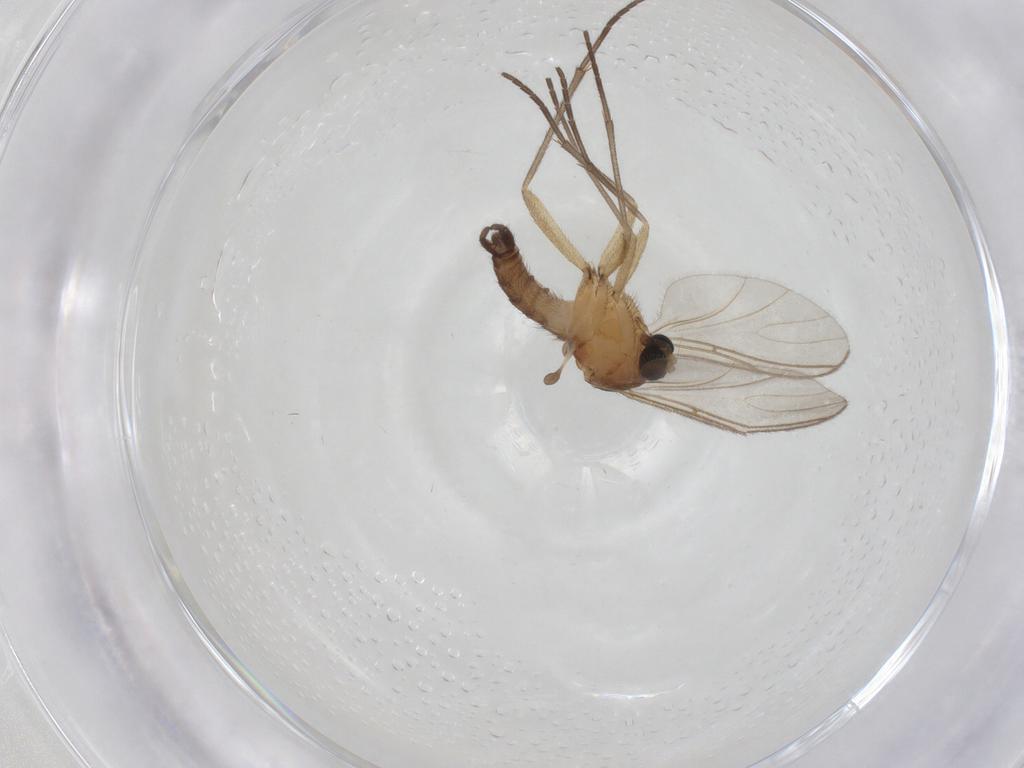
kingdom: Animalia
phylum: Arthropoda
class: Insecta
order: Diptera
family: Sciaridae
